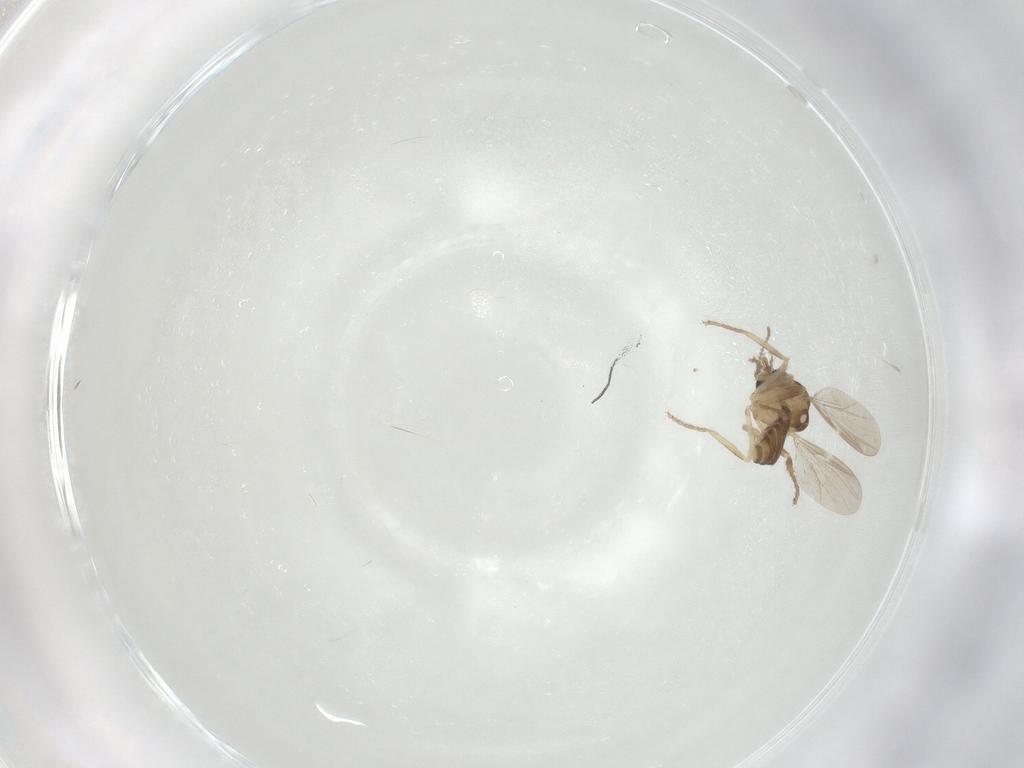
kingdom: Animalia
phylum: Arthropoda
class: Insecta
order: Diptera
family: Ceratopogonidae
